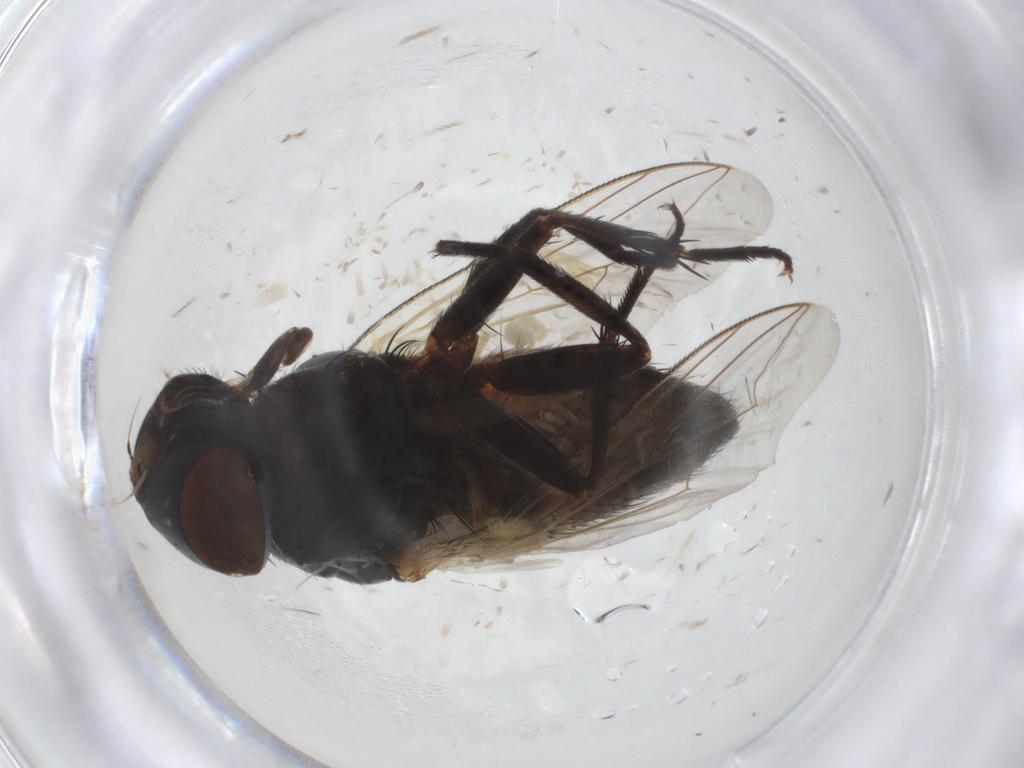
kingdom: Animalia
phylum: Arthropoda
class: Insecta
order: Diptera
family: Sarcophagidae
